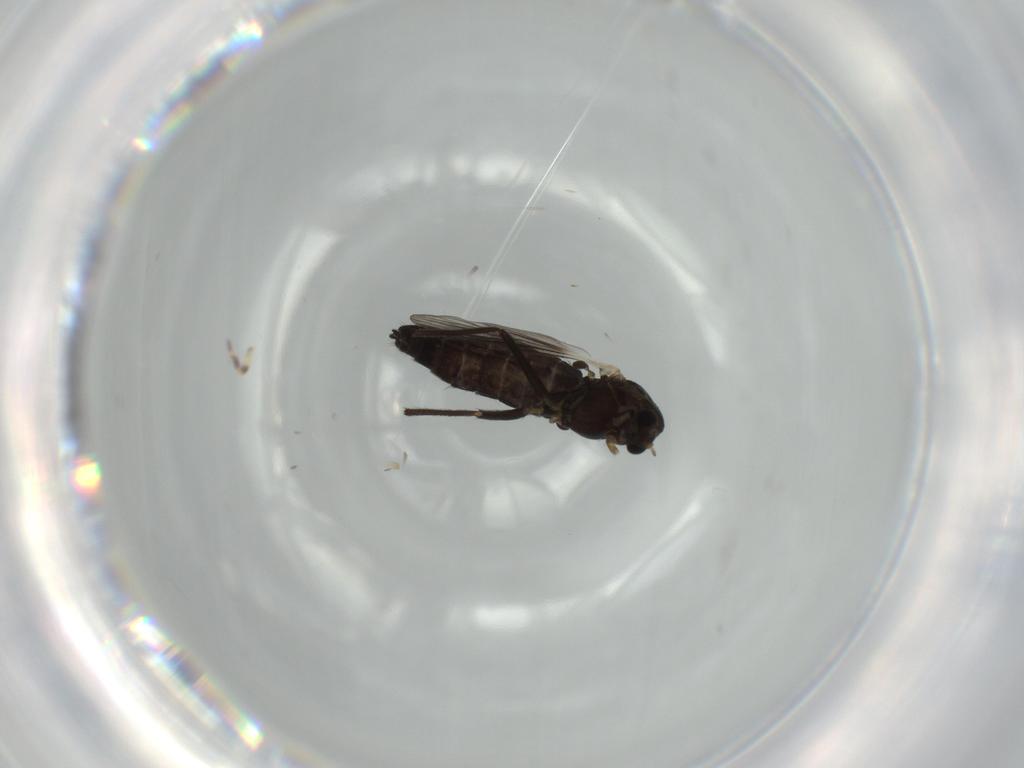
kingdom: Animalia
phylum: Arthropoda
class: Insecta
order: Diptera
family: Chironomidae
